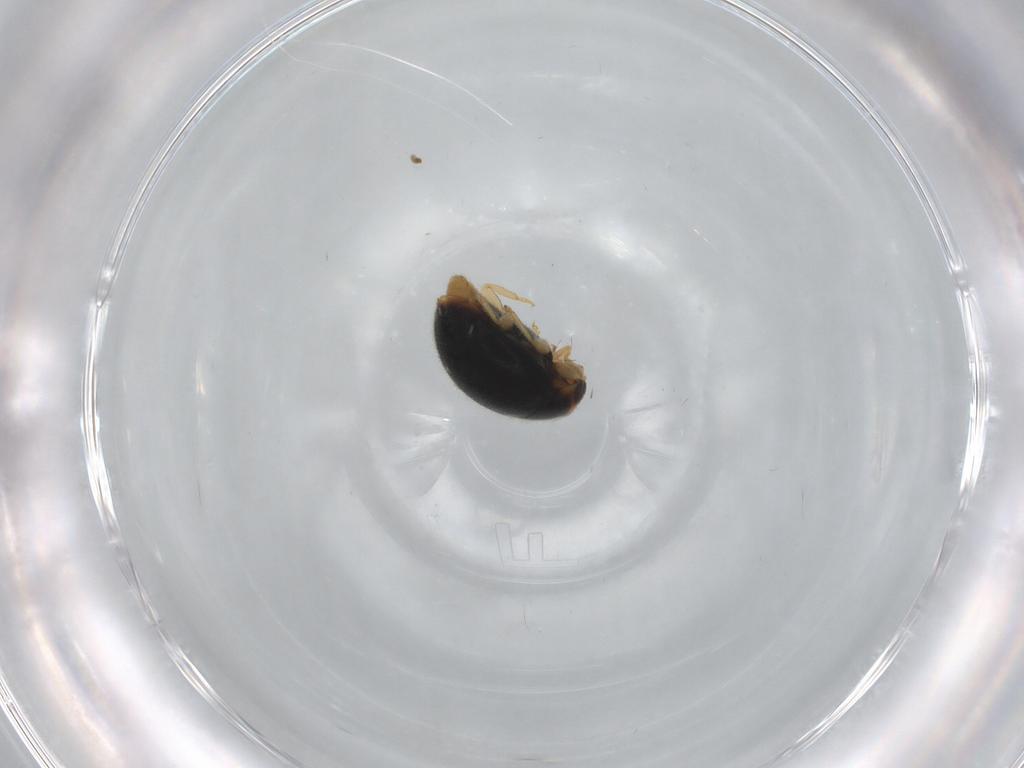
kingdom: Animalia
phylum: Arthropoda
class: Insecta
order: Coleoptera
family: Coccinellidae
